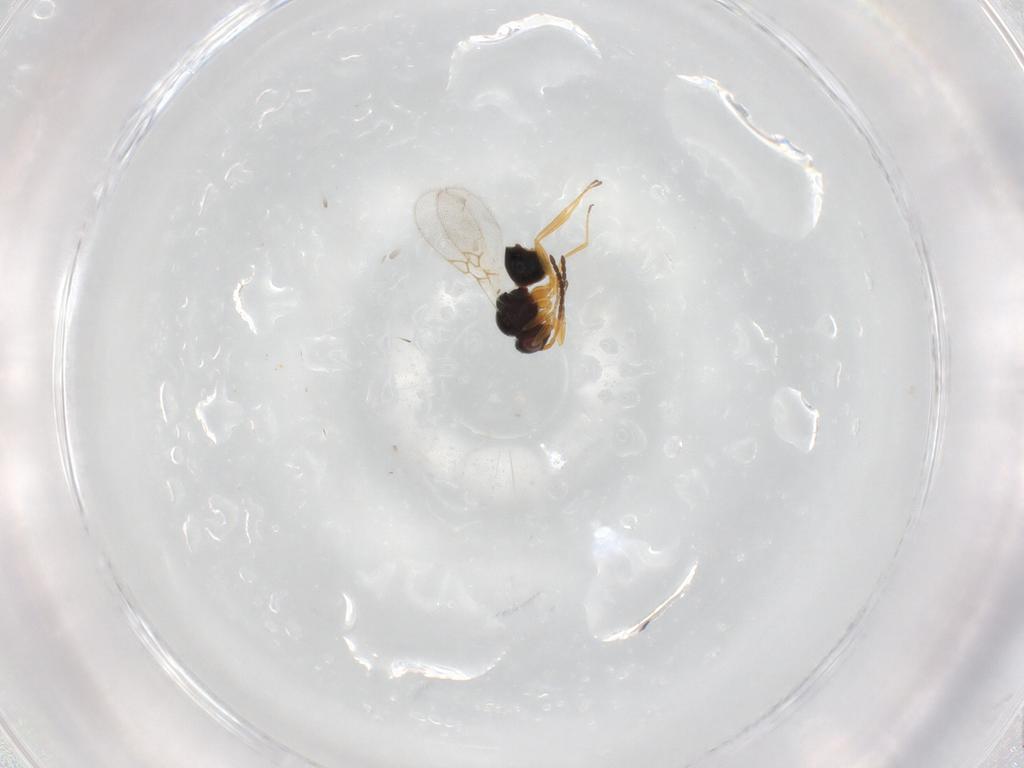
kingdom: Animalia
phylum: Arthropoda
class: Insecta
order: Hymenoptera
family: Figitidae
